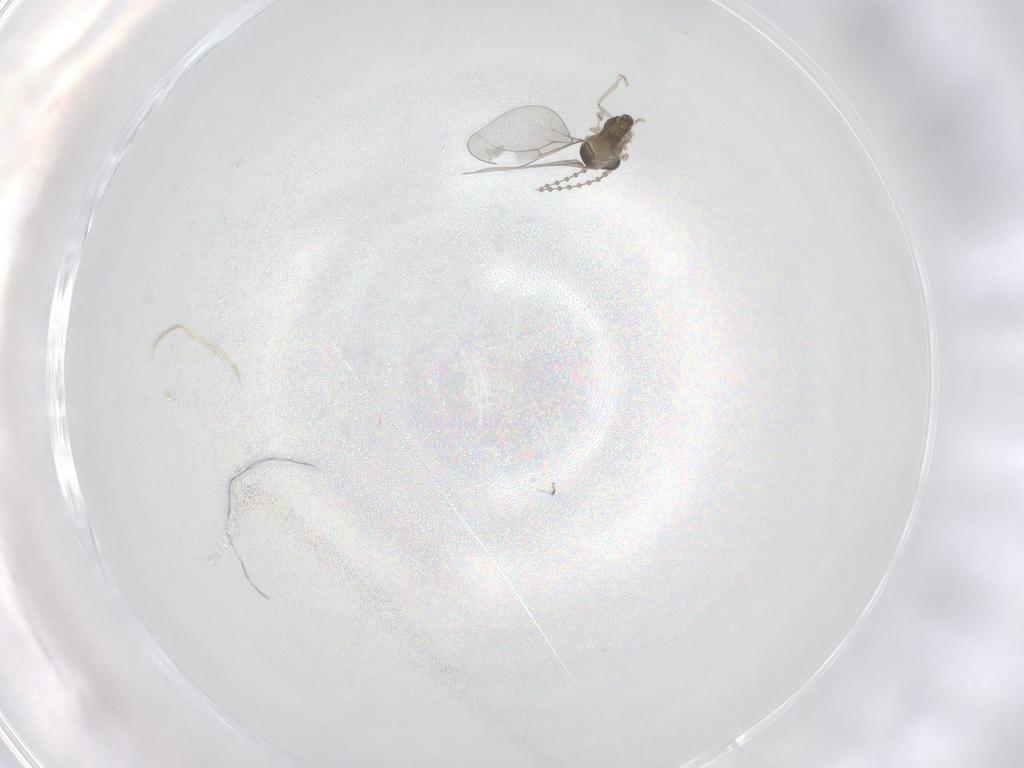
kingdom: Animalia
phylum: Arthropoda
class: Insecta
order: Diptera
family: Cecidomyiidae
